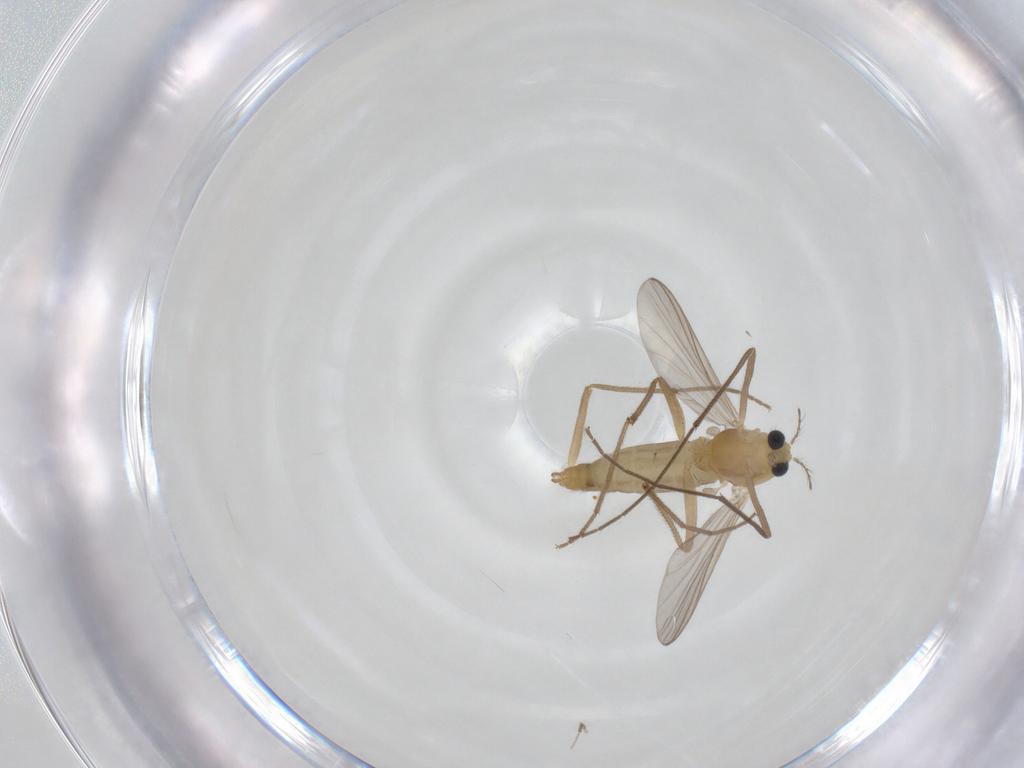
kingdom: Animalia
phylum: Arthropoda
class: Insecta
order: Diptera
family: Chironomidae
